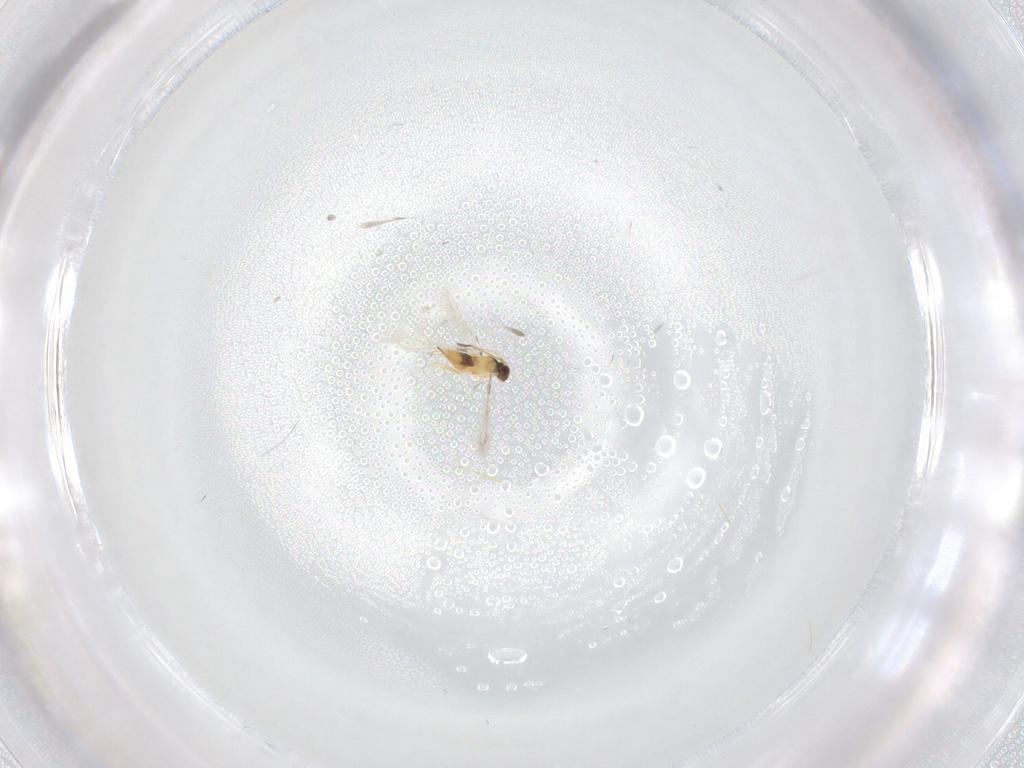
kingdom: Animalia
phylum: Arthropoda
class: Insecta
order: Hymenoptera
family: Mymaridae
